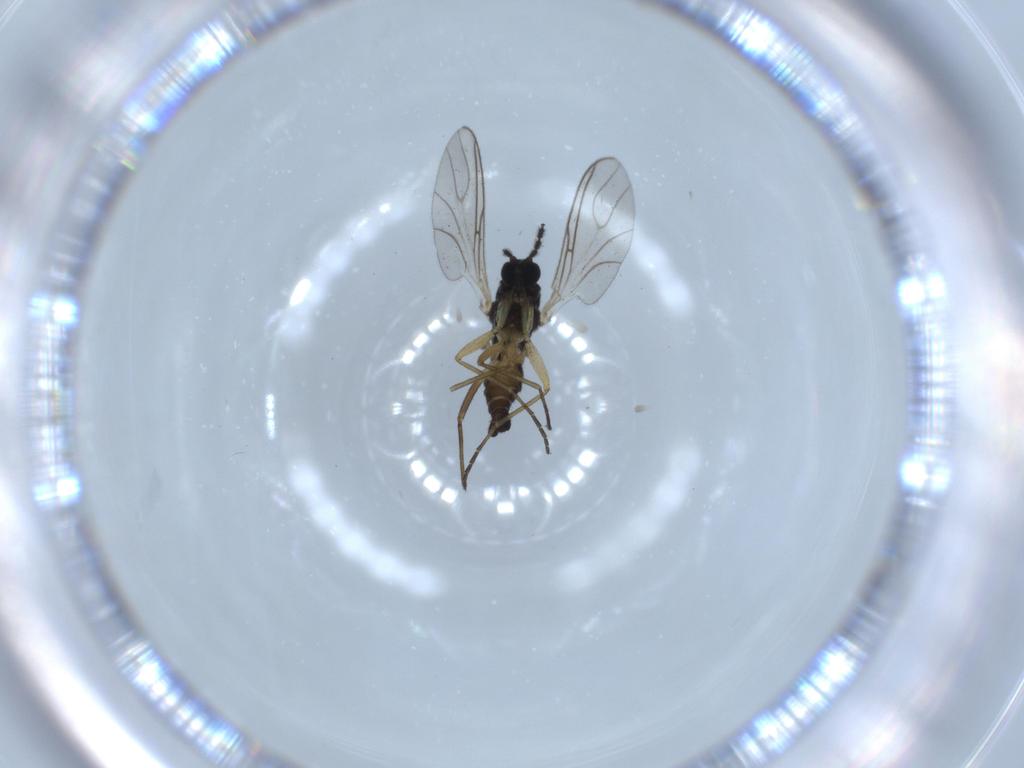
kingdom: Animalia
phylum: Arthropoda
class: Insecta
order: Diptera
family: Sciaridae
